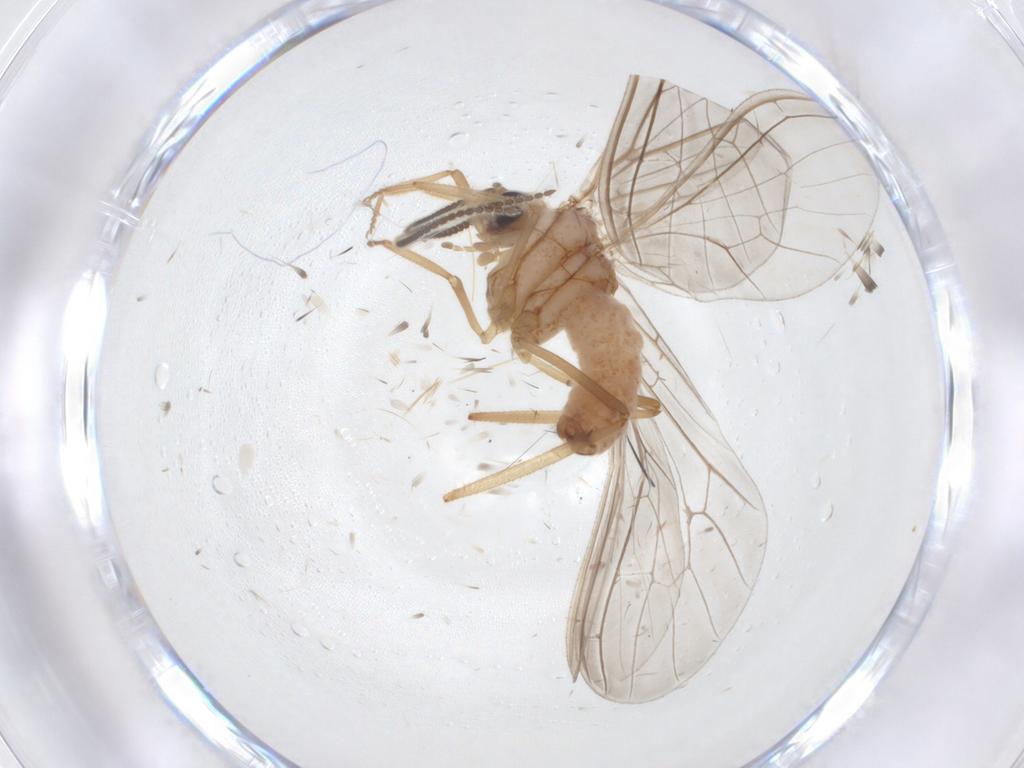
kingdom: Animalia
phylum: Arthropoda
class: Insecta
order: Neuroptera
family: Coniopterygidae
